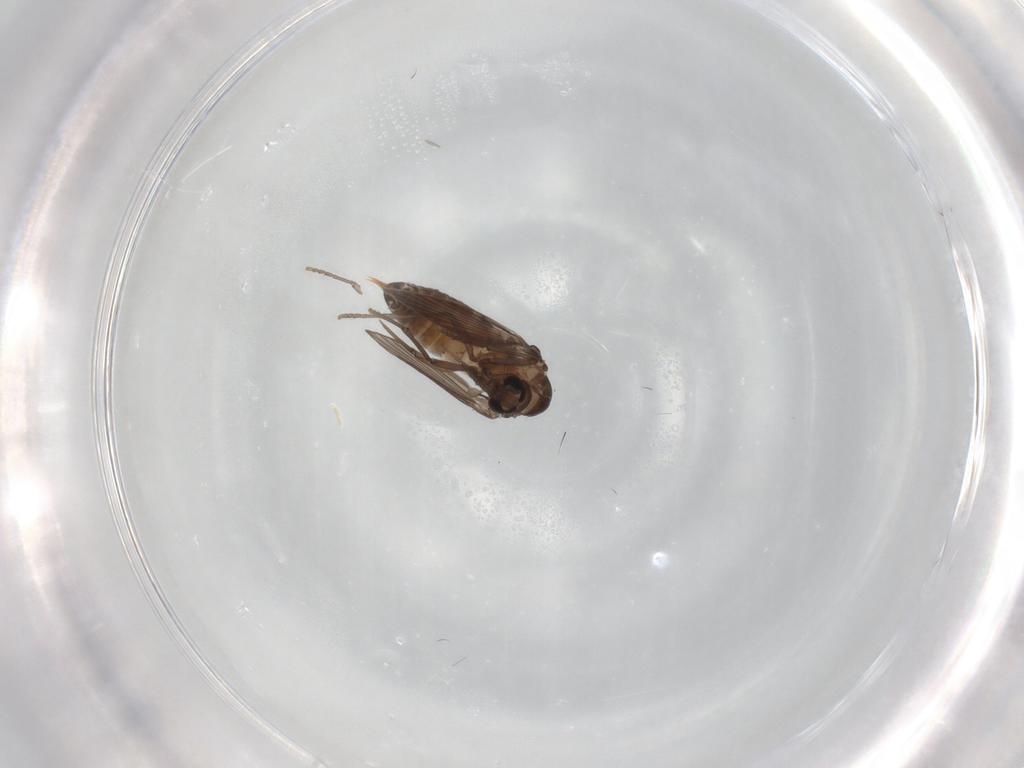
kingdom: Animalia
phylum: Arthropoda
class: Insecta
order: Diptera
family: Psychodidae
